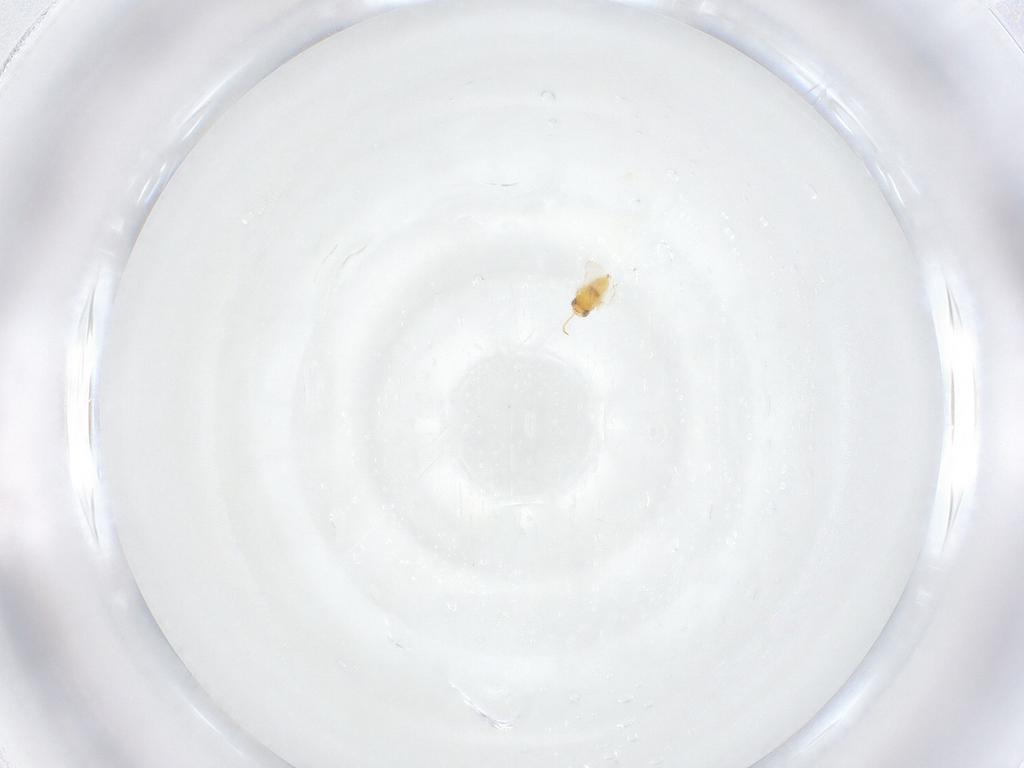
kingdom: Animalia
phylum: Arthropoda
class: Insecta
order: Hymenoptera
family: Aphelinidae
